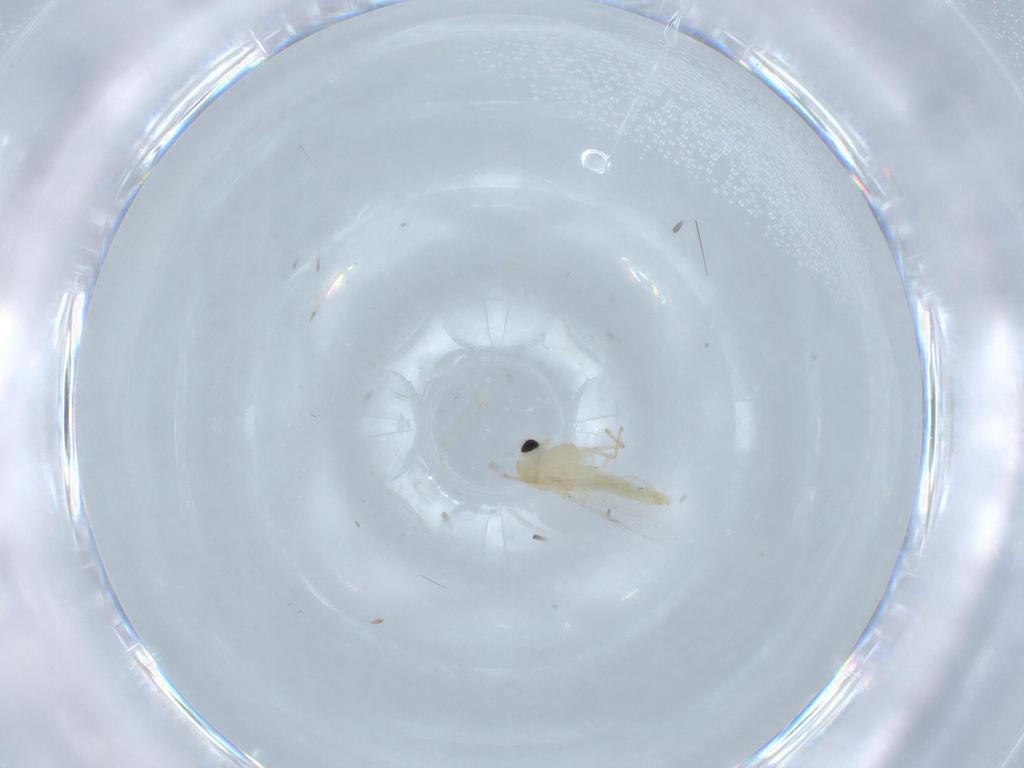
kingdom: Animalia
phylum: Arthropoda
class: Insecta
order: Diptera
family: Chironomidae
